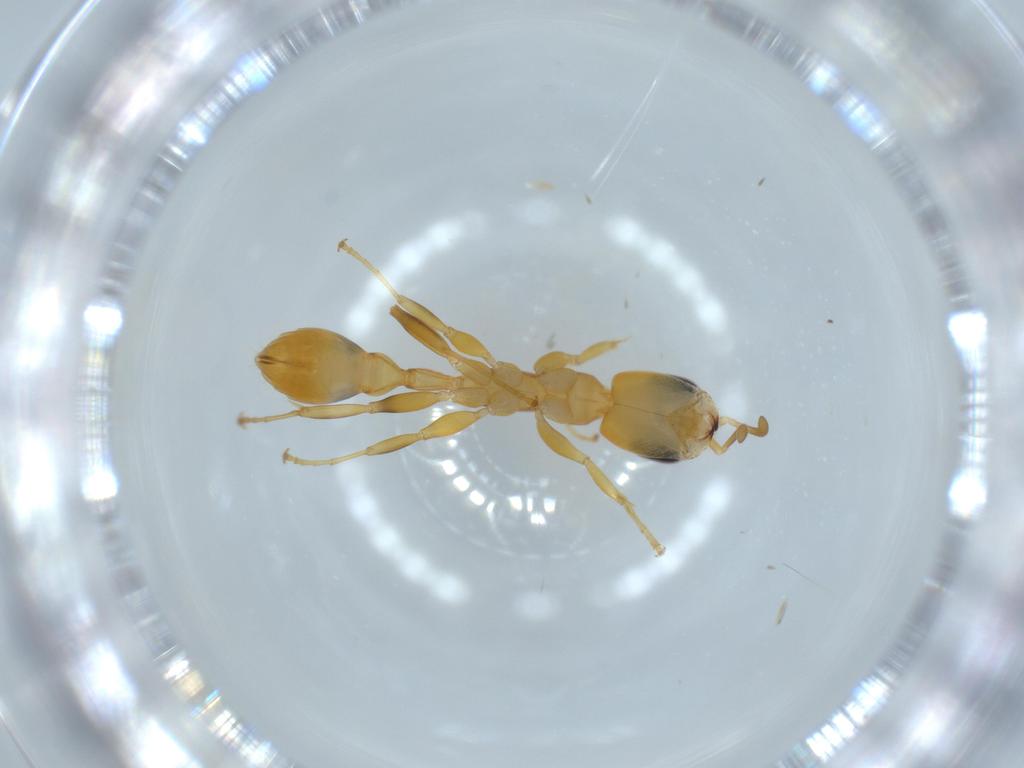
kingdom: Animalia
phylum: Arthropoda
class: Insecta
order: Hymenoptera
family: Formicidae
